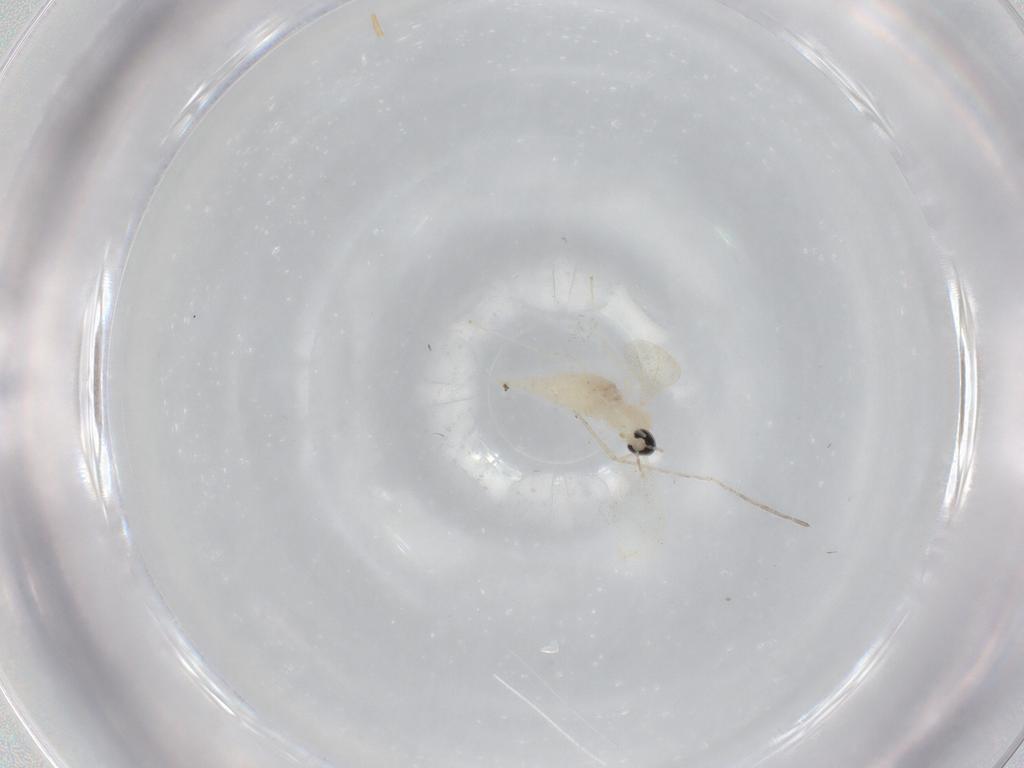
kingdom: Animalia
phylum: Arthropoda
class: Insecta
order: Diptera
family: Cecidomyiidae
